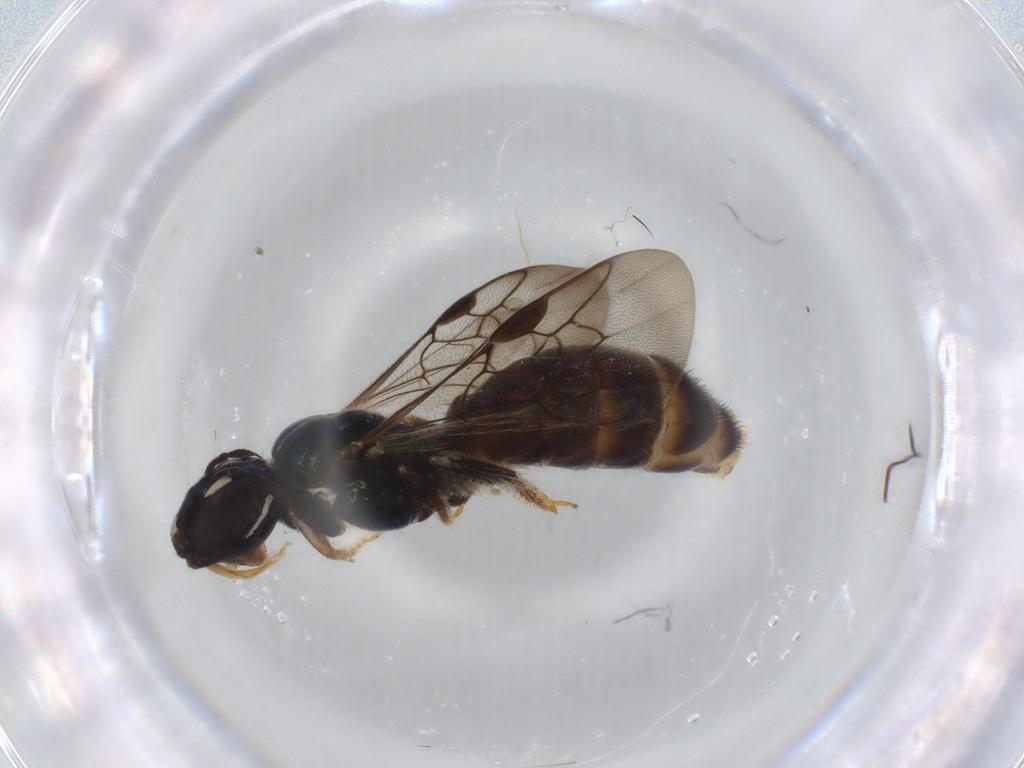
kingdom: Animalia
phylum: Arthropoda
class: Insecta
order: Hymenoptera
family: Apidae
